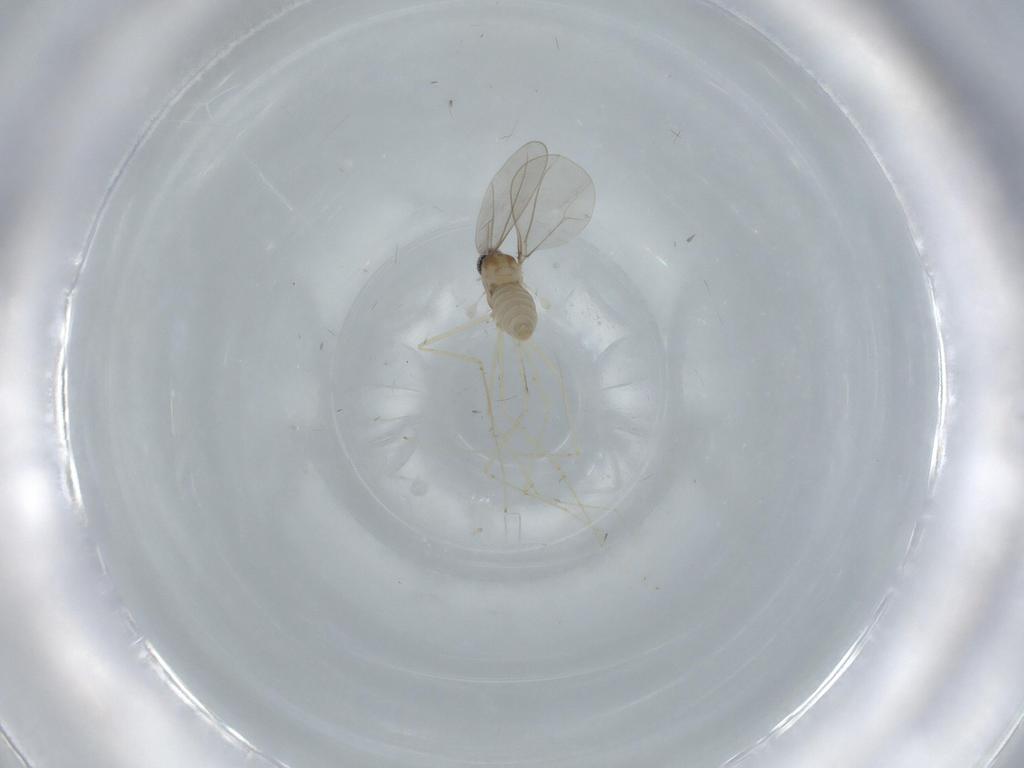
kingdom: Animalia
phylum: Arthropoda
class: Insecta
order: Diptera
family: Cecidomyiidae
